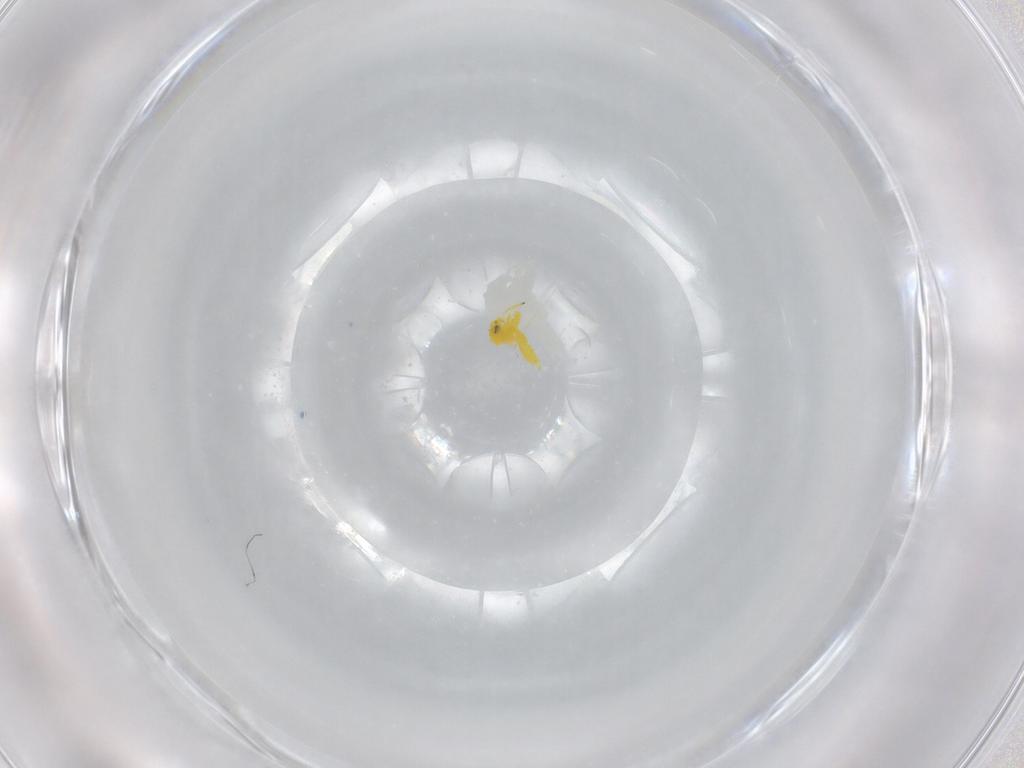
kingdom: Animalia
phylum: Arthropoda
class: Insecta
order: Hemiptera
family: Aleyrodidae
